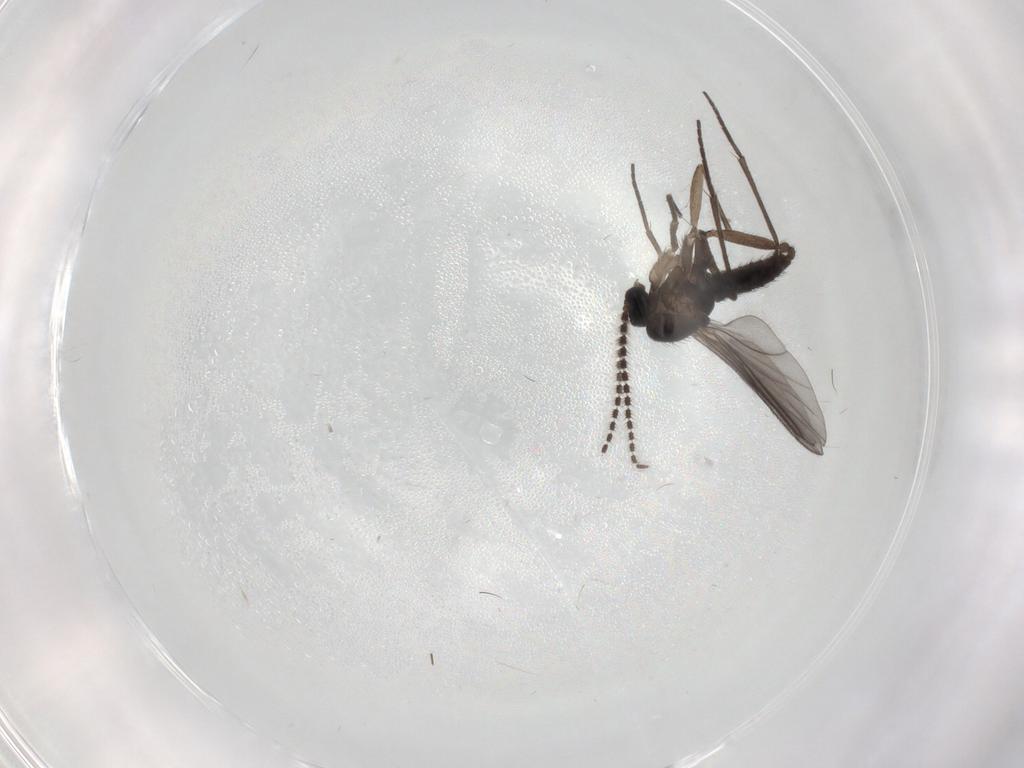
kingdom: Animalia
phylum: Arthropoda
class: Insecta
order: Diptera
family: Sciaridae
